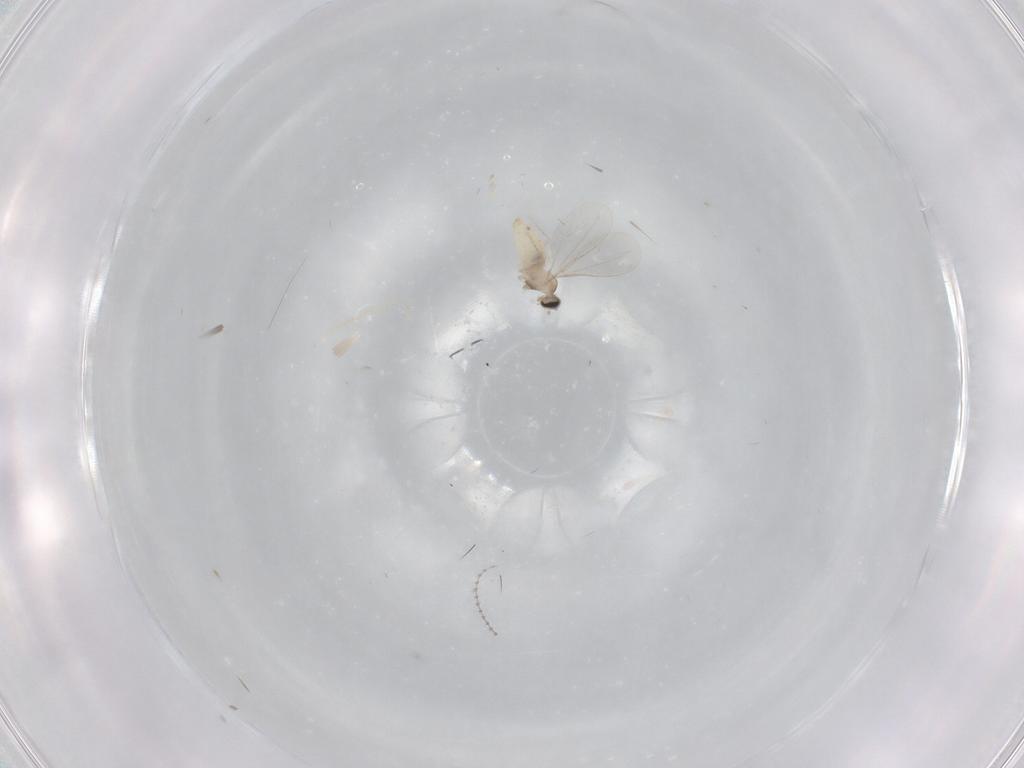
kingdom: Animalia
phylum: Arthropoda
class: Insecta
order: Diptera
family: Cecidomyiidae
